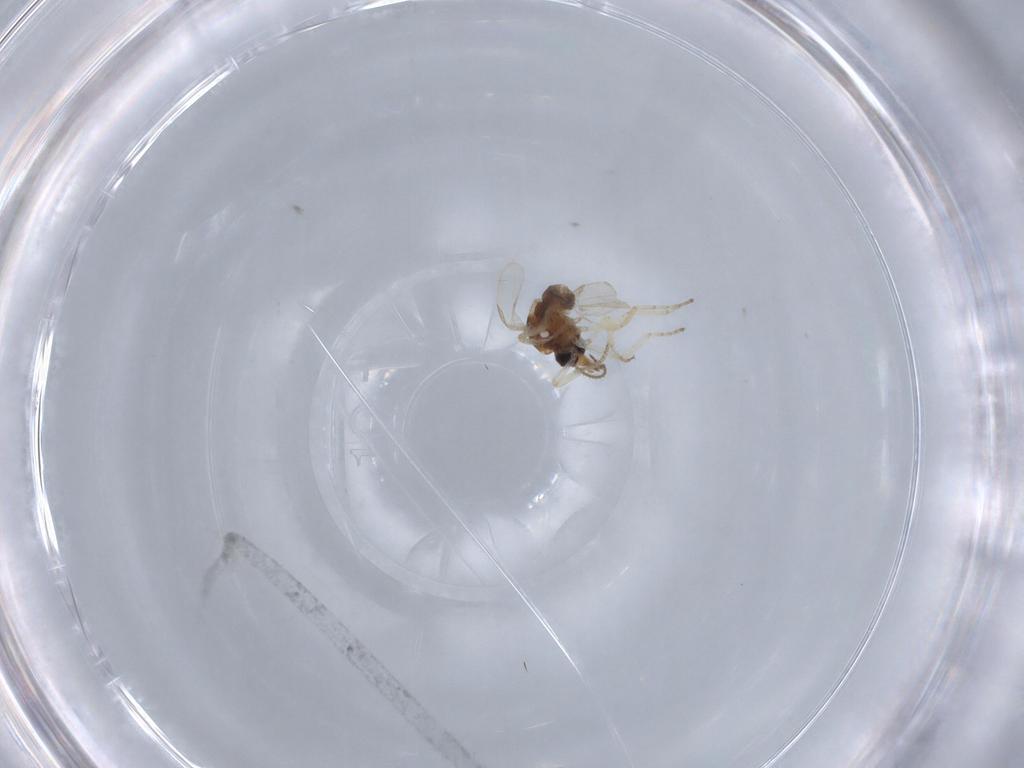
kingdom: Animalia
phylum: Arthropoda
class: Insecta
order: Diptera
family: Ceratopogonidae
